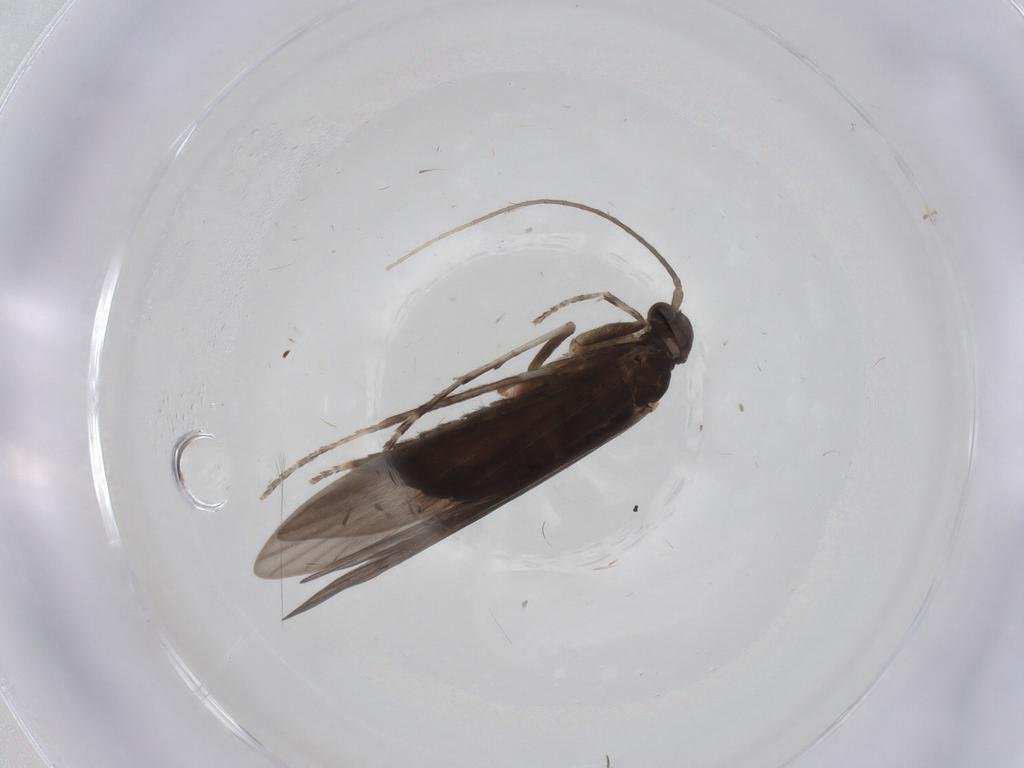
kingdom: Animalia
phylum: Arthropoda
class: Insecta
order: Trichoptera
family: Xiphocentronidae
